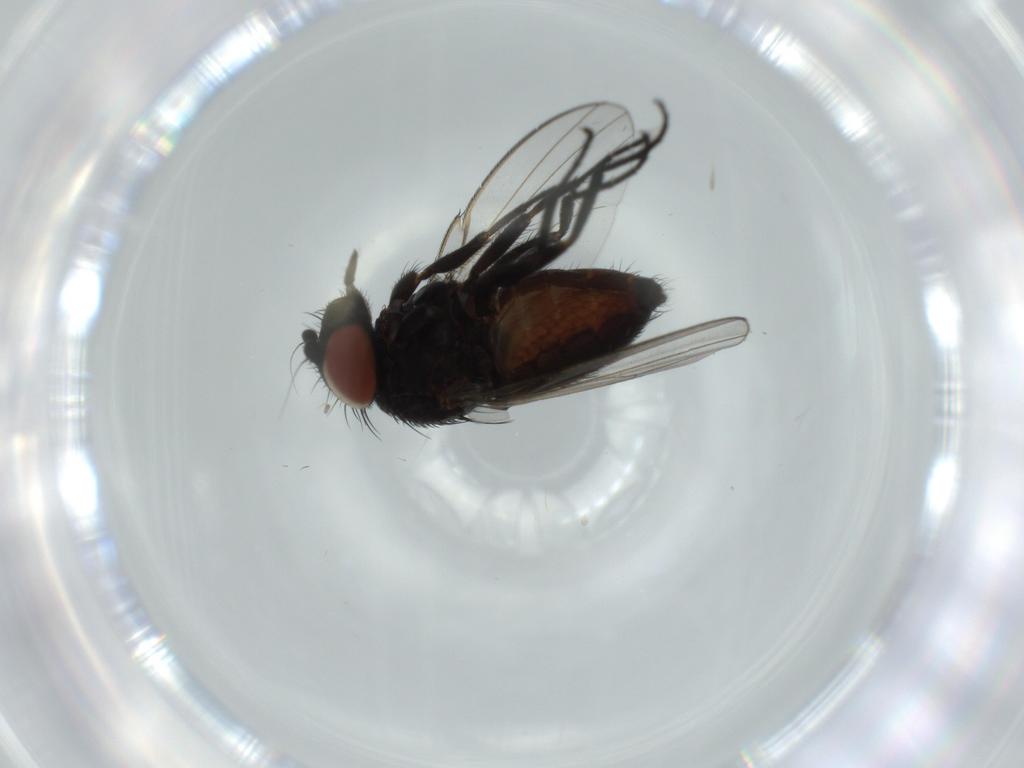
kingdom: Animalia
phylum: Arthropoda
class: Insecta
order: Diptera
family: Milichiidae
